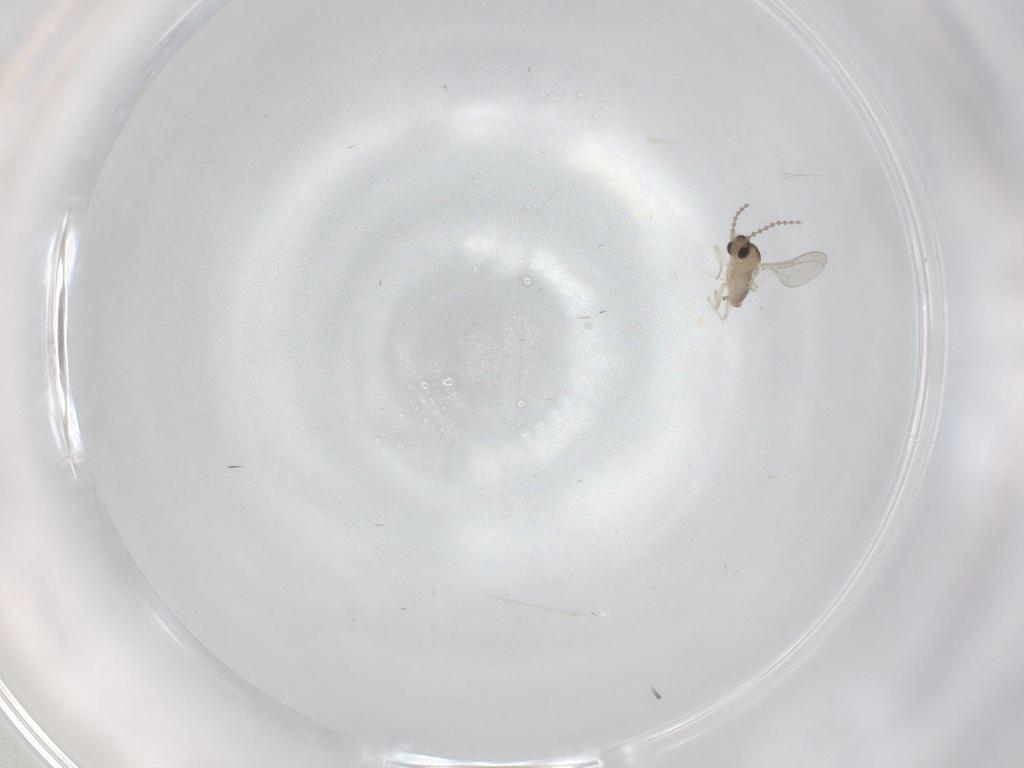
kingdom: Animalia
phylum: Arthropoda
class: Insecta
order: Diptera
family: Cecidomyiidae
